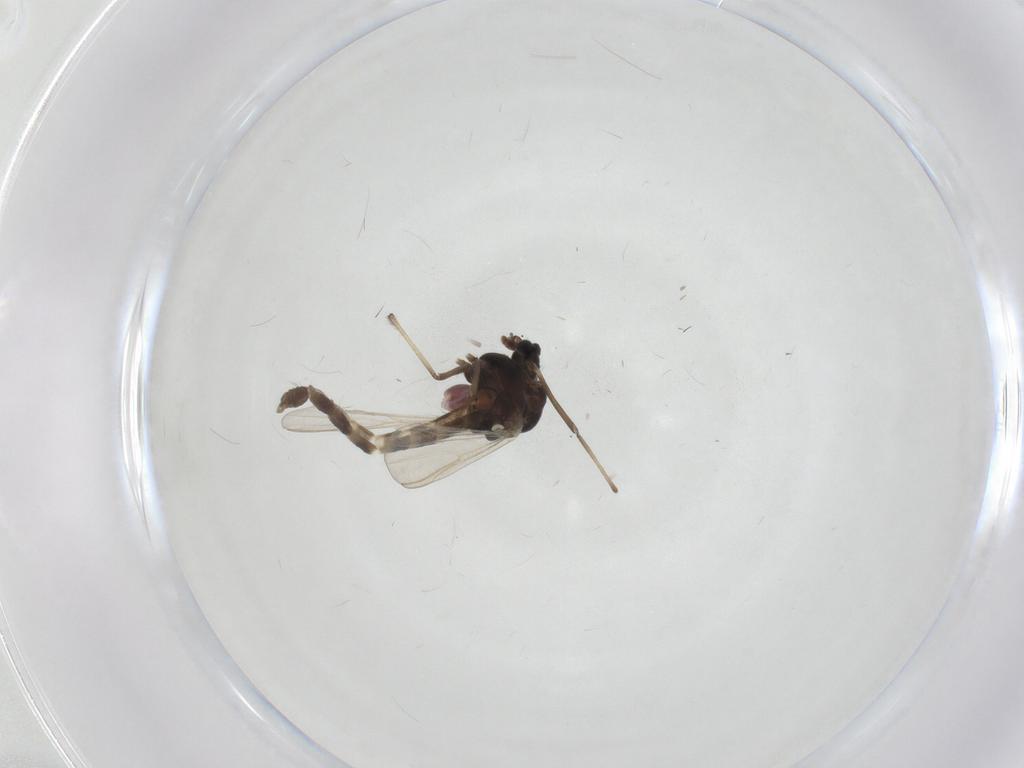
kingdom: Animalia
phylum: Arthropoda
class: Insecta
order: Diptera
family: Chironomidae
